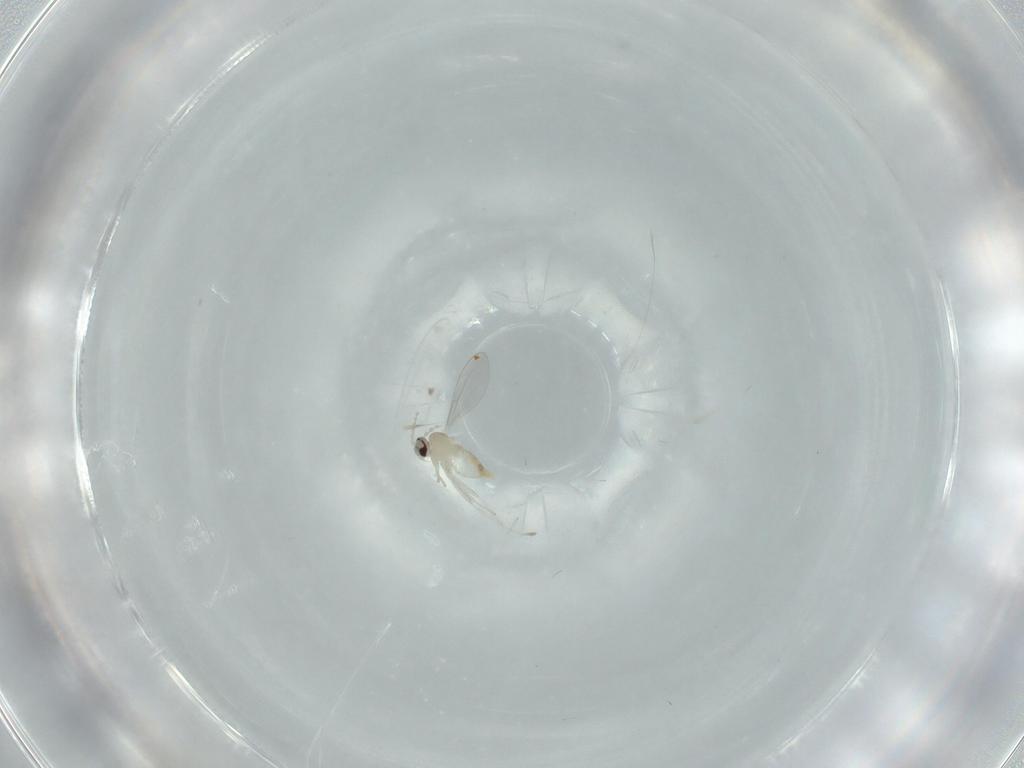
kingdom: Animalia
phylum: Arthropoda
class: Insecta
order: Diptera
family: Cecidomyiidae
